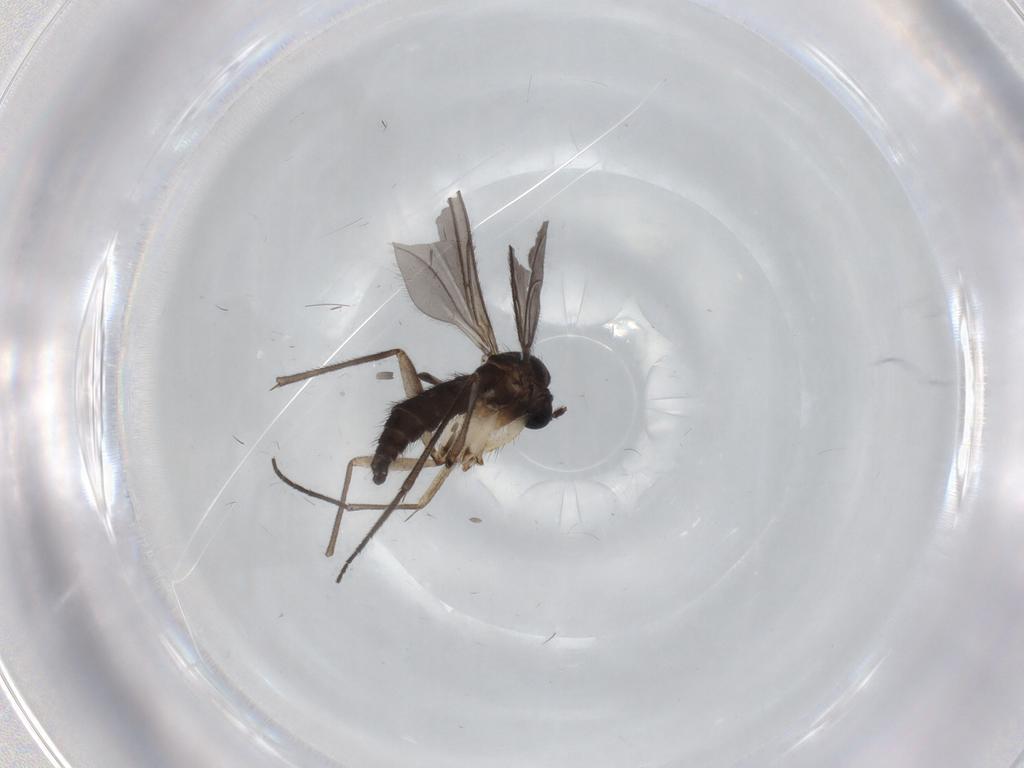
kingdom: Animalia
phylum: Arthropoda
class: Insecta
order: Diptera
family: Sciaridae
